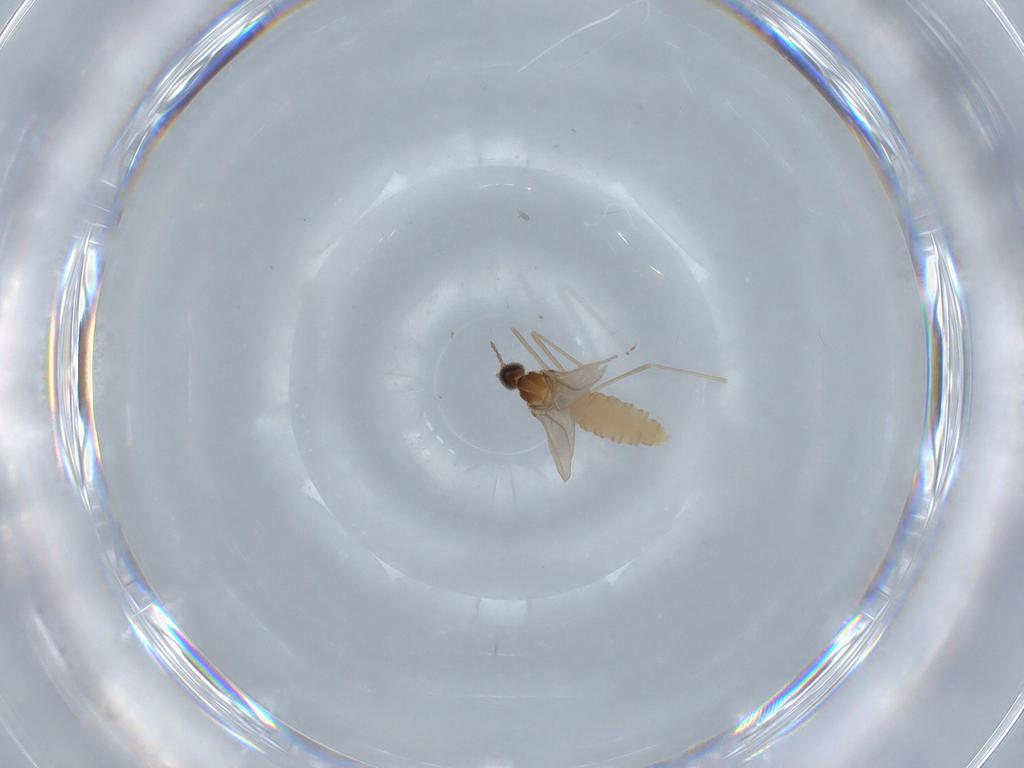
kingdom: Animalia
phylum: Arthropoda
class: Insecta
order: Diptera
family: Cecidomyiidae
